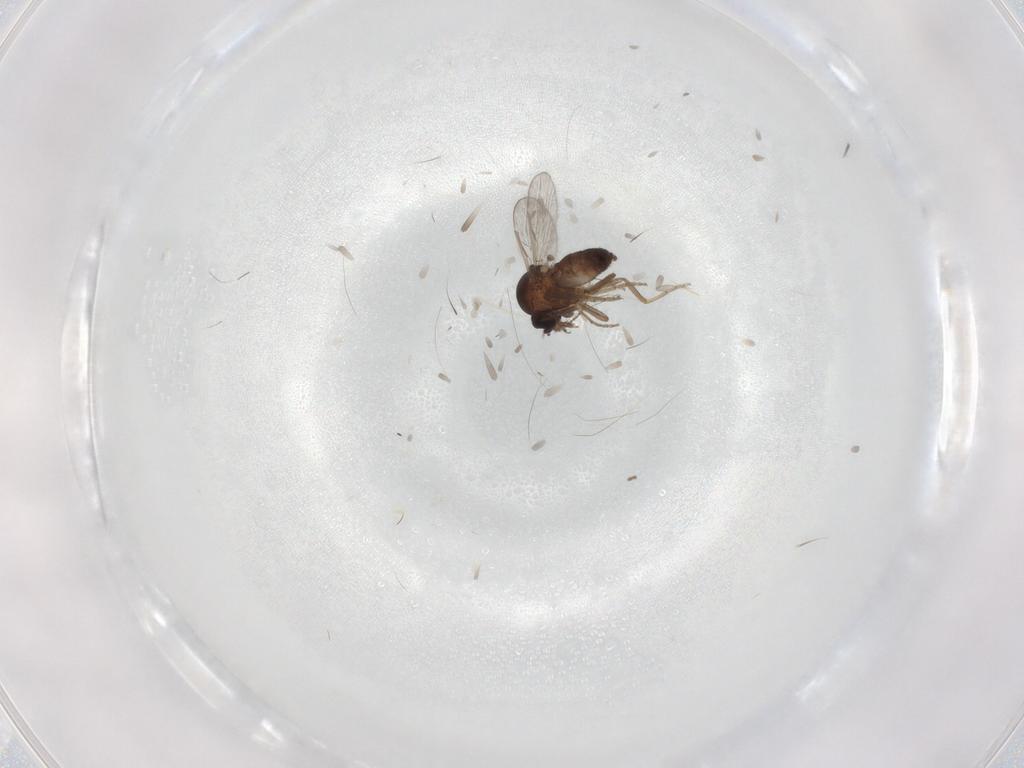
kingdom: Animalia
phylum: Arthropoda
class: Insecta
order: Diptera
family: Ceratopogonidae
